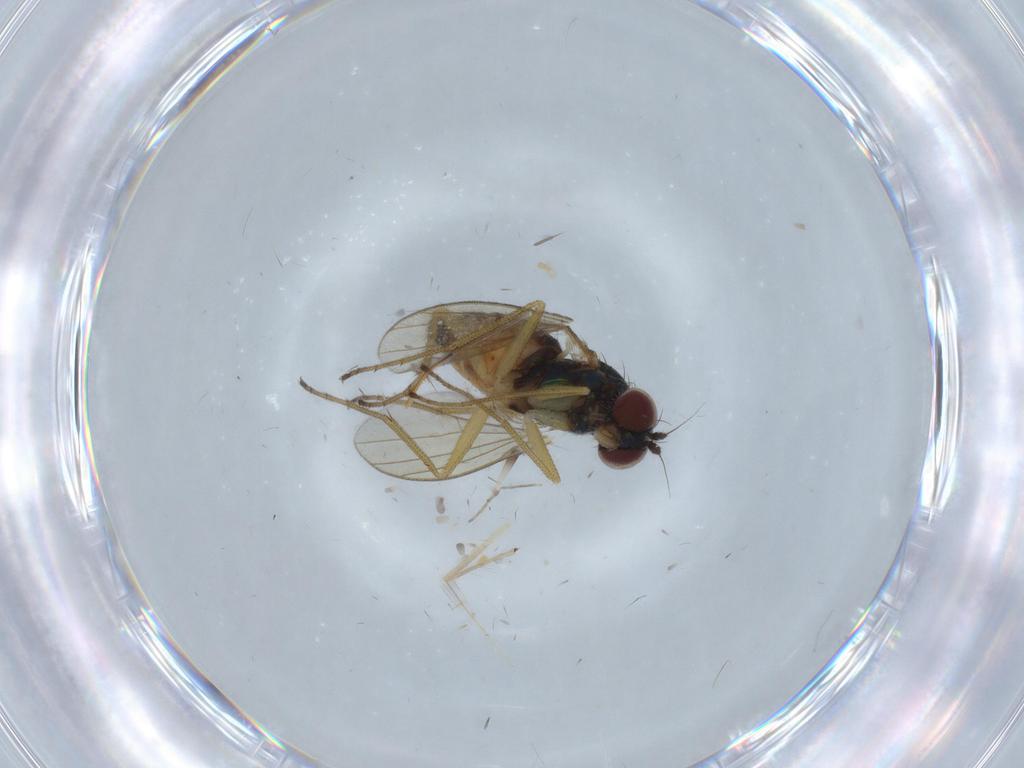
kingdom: Animalia
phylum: Arthropoda
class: Insecta
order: Diptera
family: Dolichopodidae
